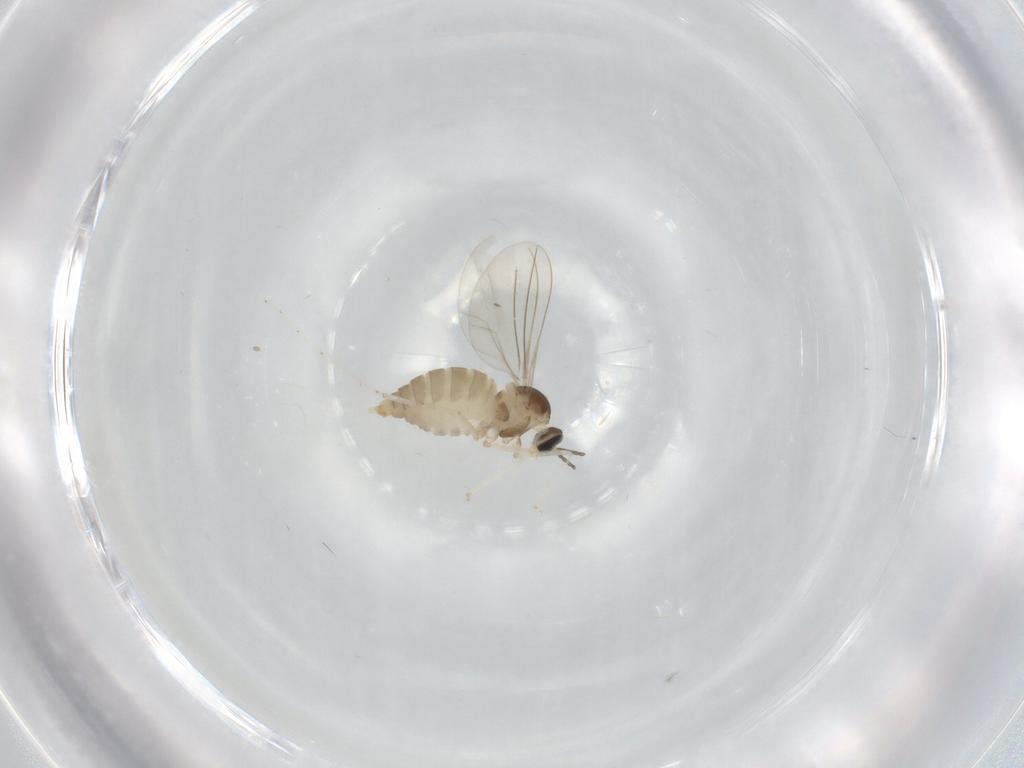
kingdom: Animalia
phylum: Arthropoda
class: Insecta
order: Diptera
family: Cecidomyiidae
